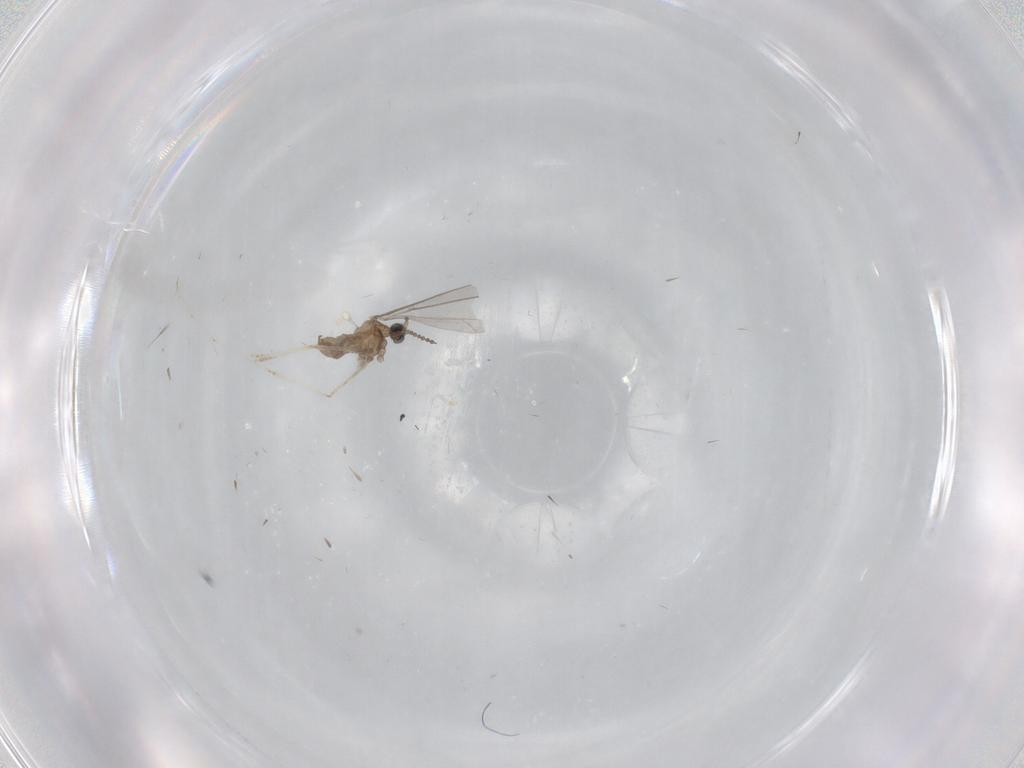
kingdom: Animalia
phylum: Arthropoda
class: Insecta
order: Diptera
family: Cecidomyiidae
